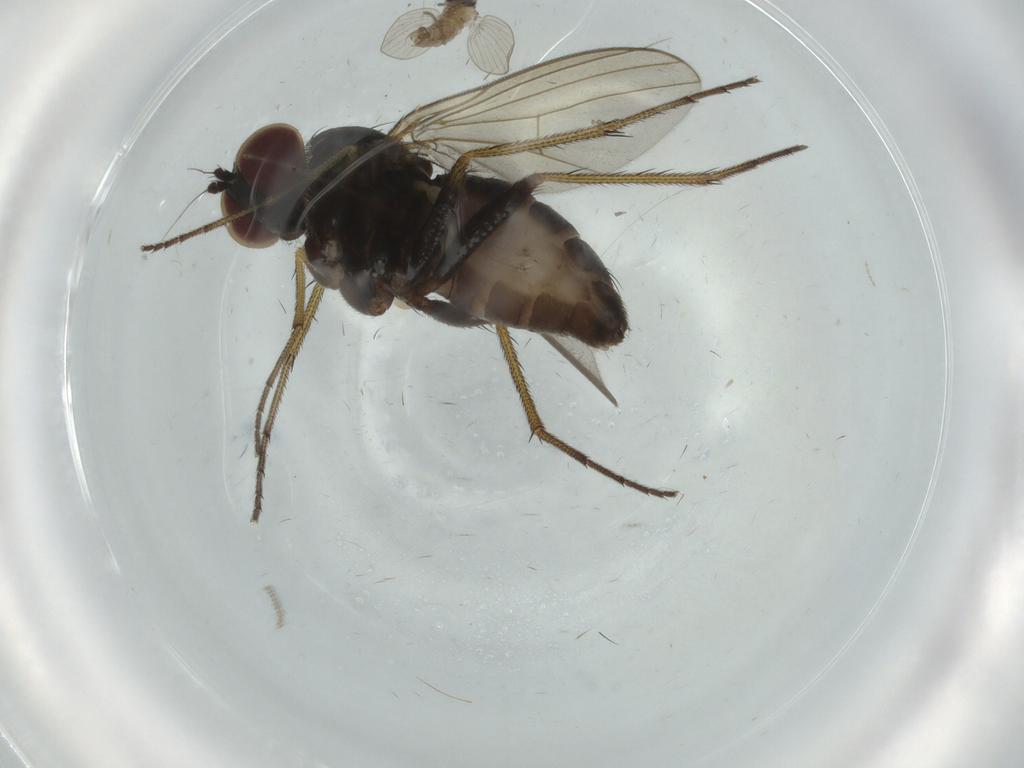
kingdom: Animalia
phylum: Arthropoda
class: Insecta
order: Diptera
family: Psychodidae
